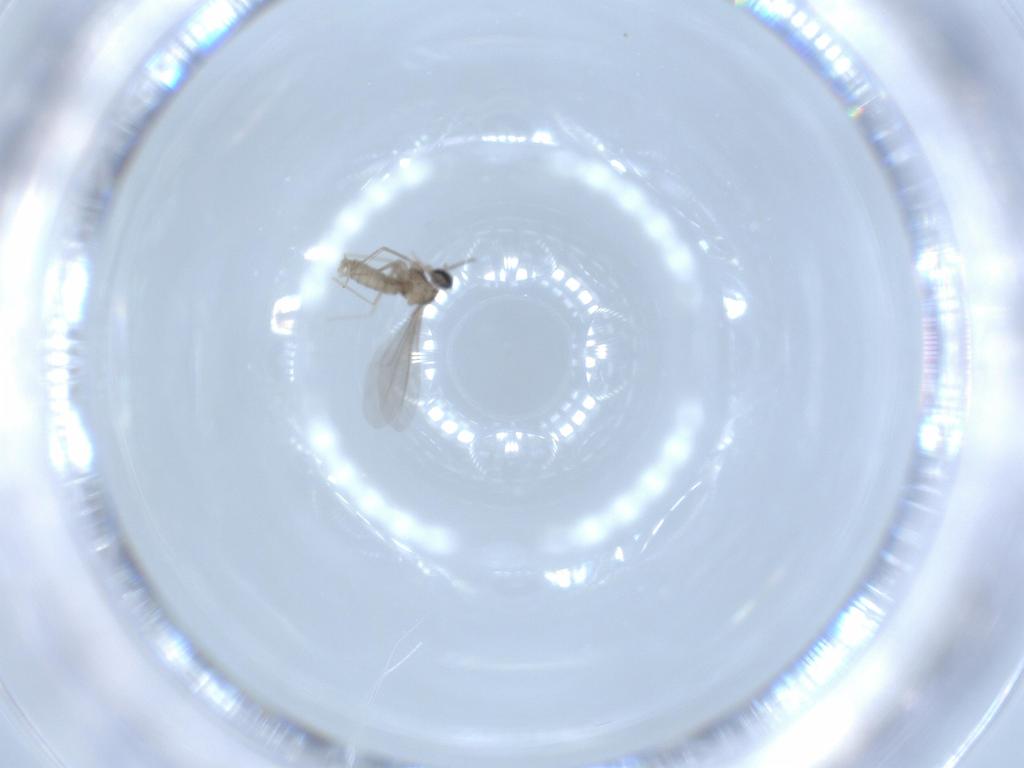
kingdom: Animalia
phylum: Arthropoda
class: Insecta
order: Diptera
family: Cecidomyiidae
